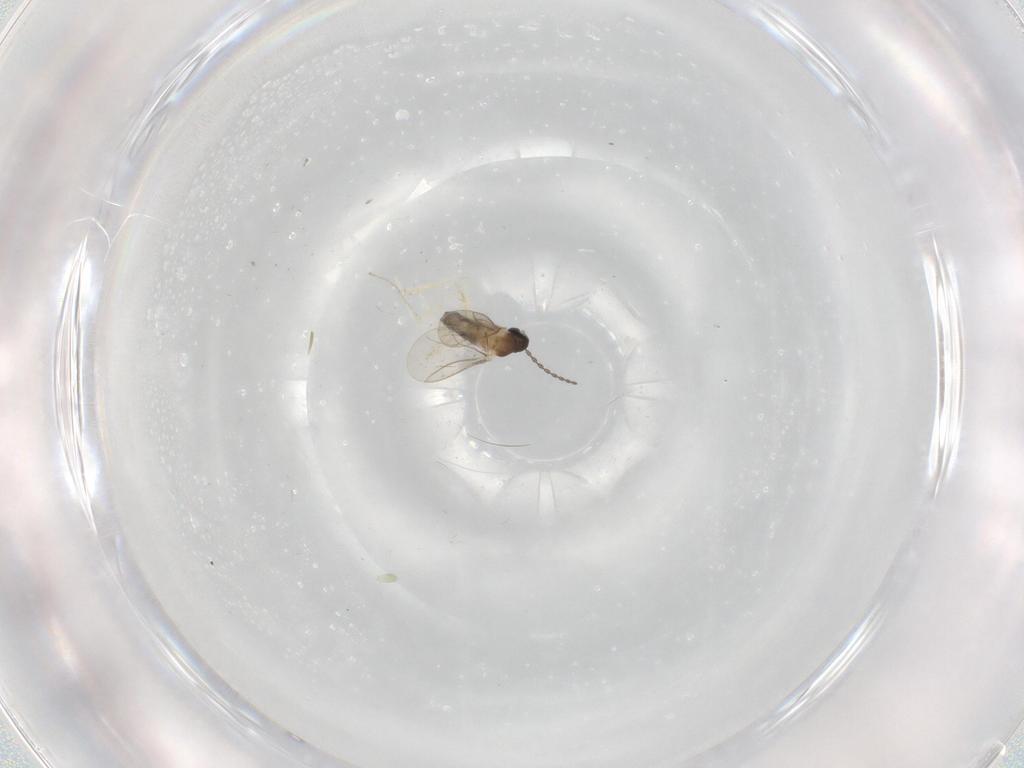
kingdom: Animalia
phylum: Arthropoda
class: Insecta
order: Diptera
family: Cecidomyiidae
